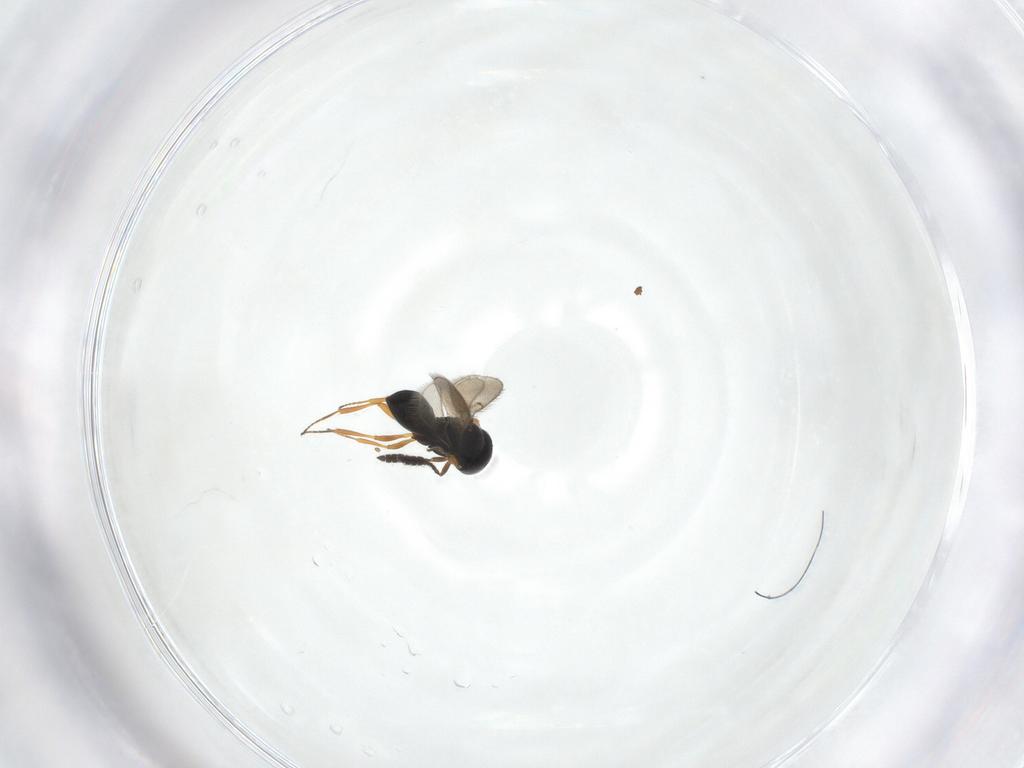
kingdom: Animalia
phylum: Arthropoda
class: Insecta
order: Hymenoptera
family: Scelionidae
